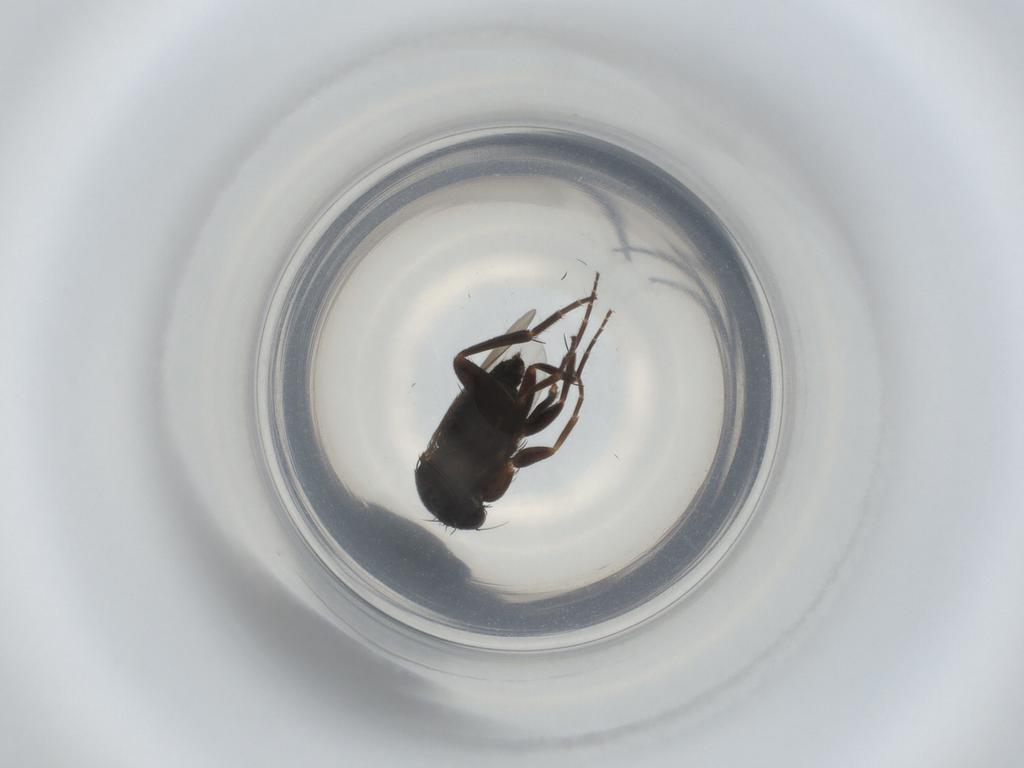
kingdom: Animalia
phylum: Arthropoda
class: Insecta
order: Diptera
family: Phoridae
